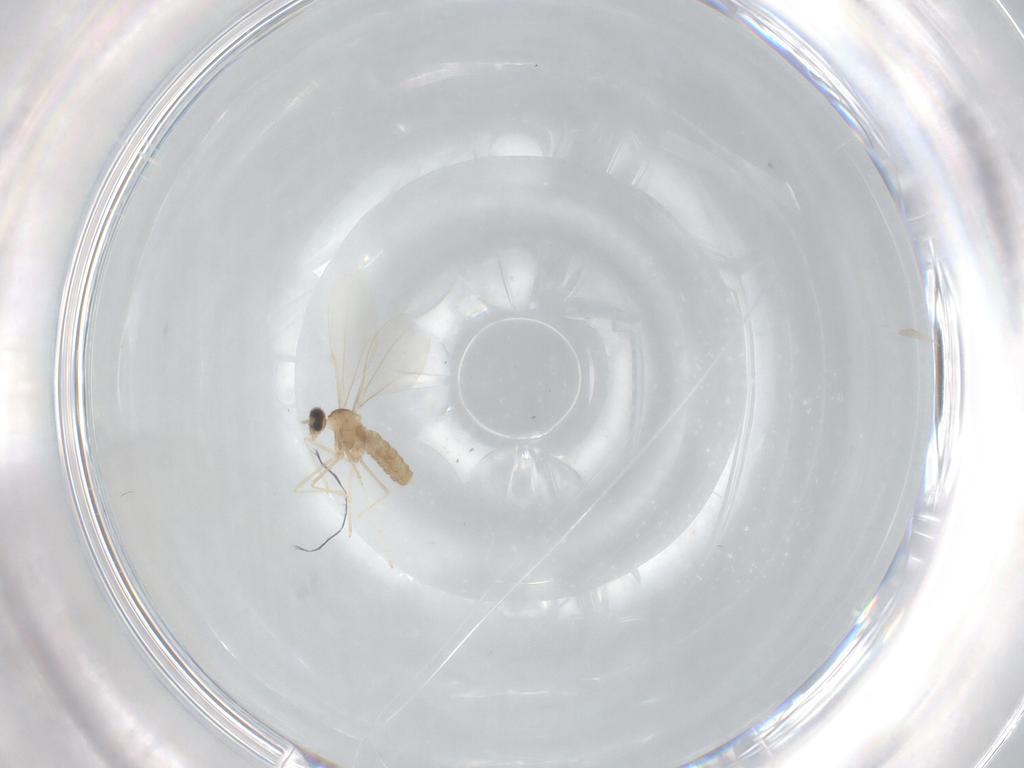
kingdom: Animalia
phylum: Arthropoda
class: Insecta
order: Diptera
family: Cecidomyiidae
